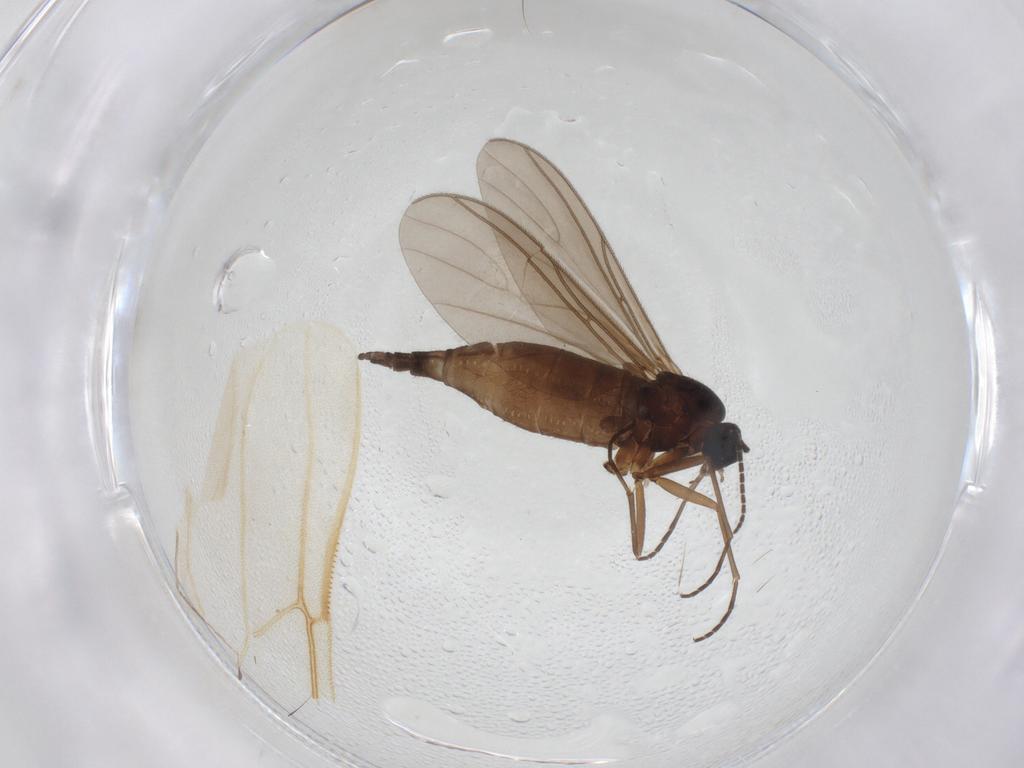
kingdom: Animalia
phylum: Arthropoda
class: Insecta
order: Diptera
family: Sciaridae
